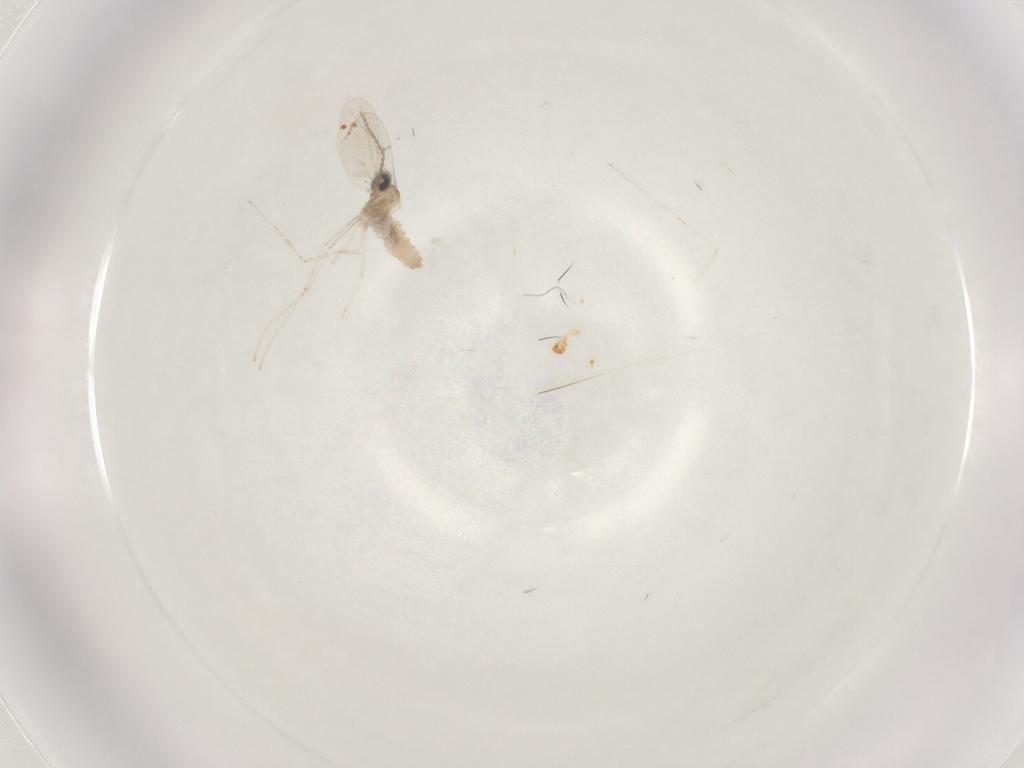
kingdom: Animalia
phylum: Arthropoda
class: Insecta
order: Diptera
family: Cecidomyiidae
